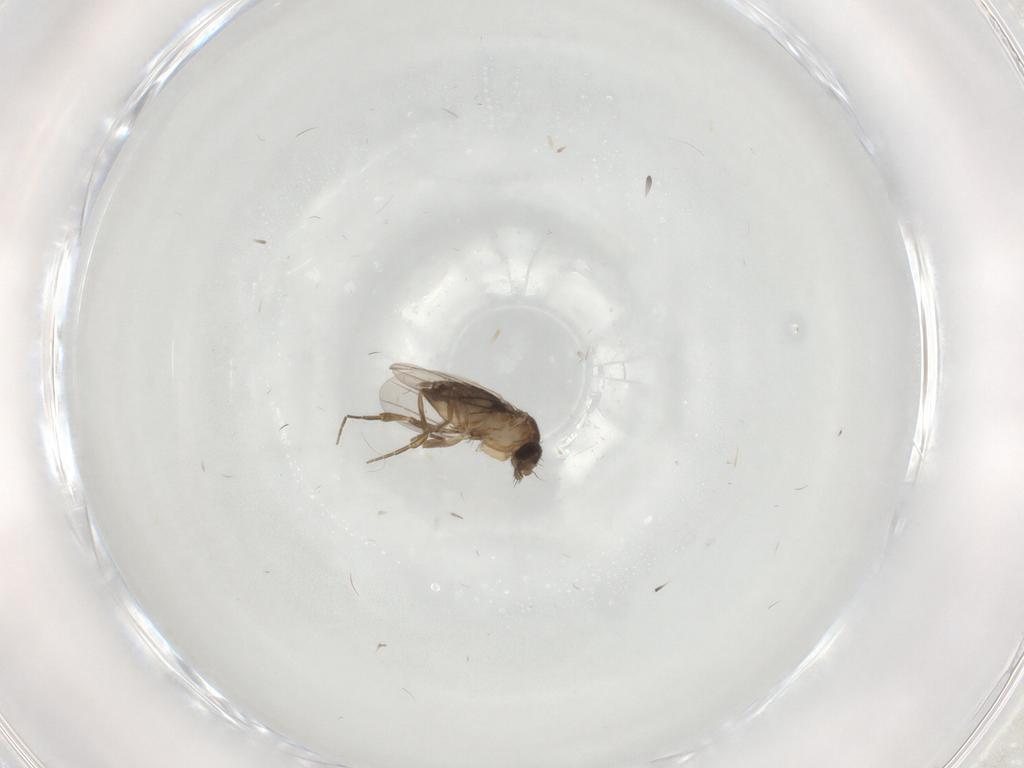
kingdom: Animalia
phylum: Arthropoda
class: Insecta
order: Diptera
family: Phoridae
